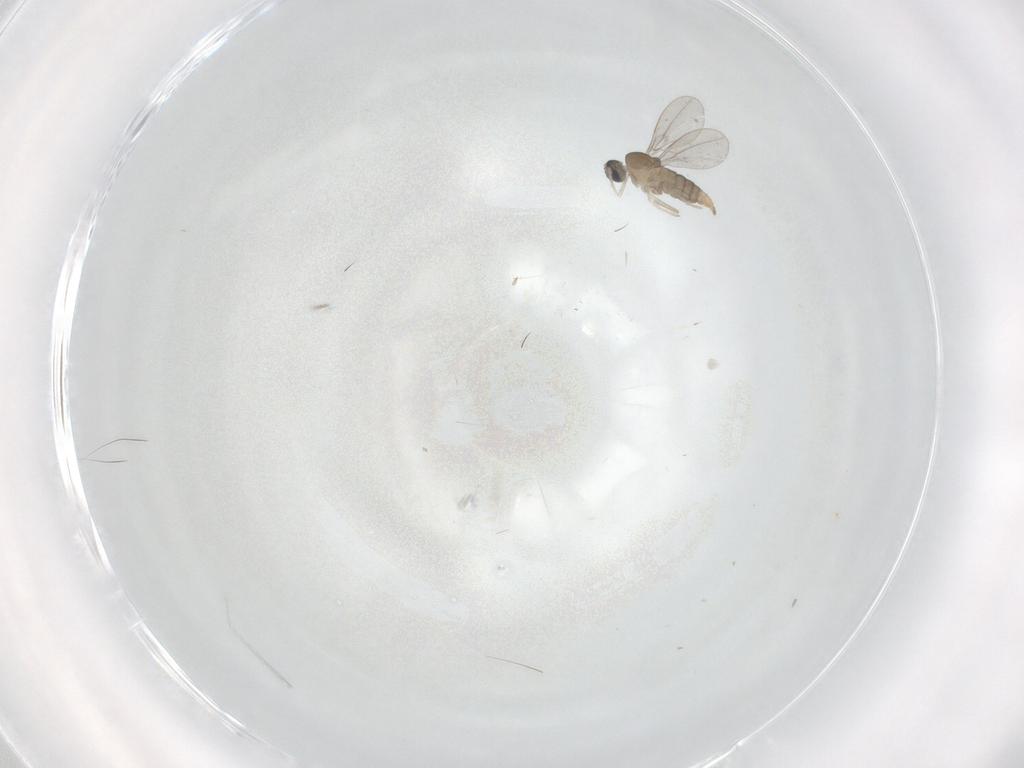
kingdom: Animalia
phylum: Arthropoda
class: Insecta
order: Diptera
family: Cecidomyiidae
